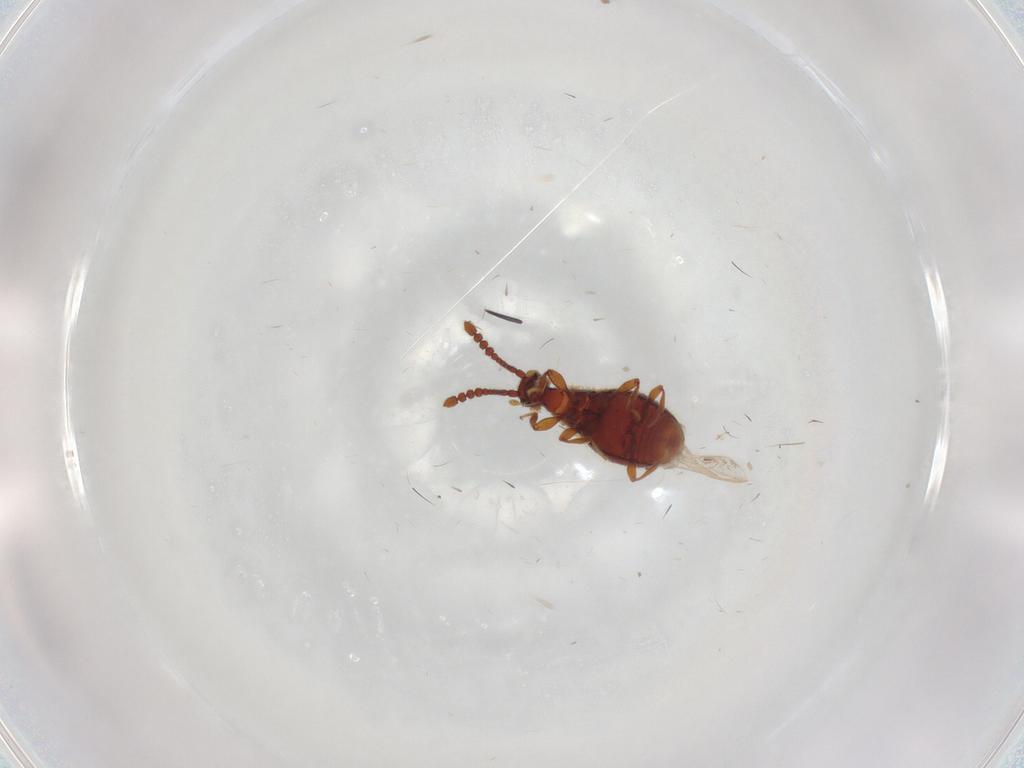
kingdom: Animalia
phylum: Arthropoda
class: Insecta
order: Coleoptera
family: Staphylinidae
